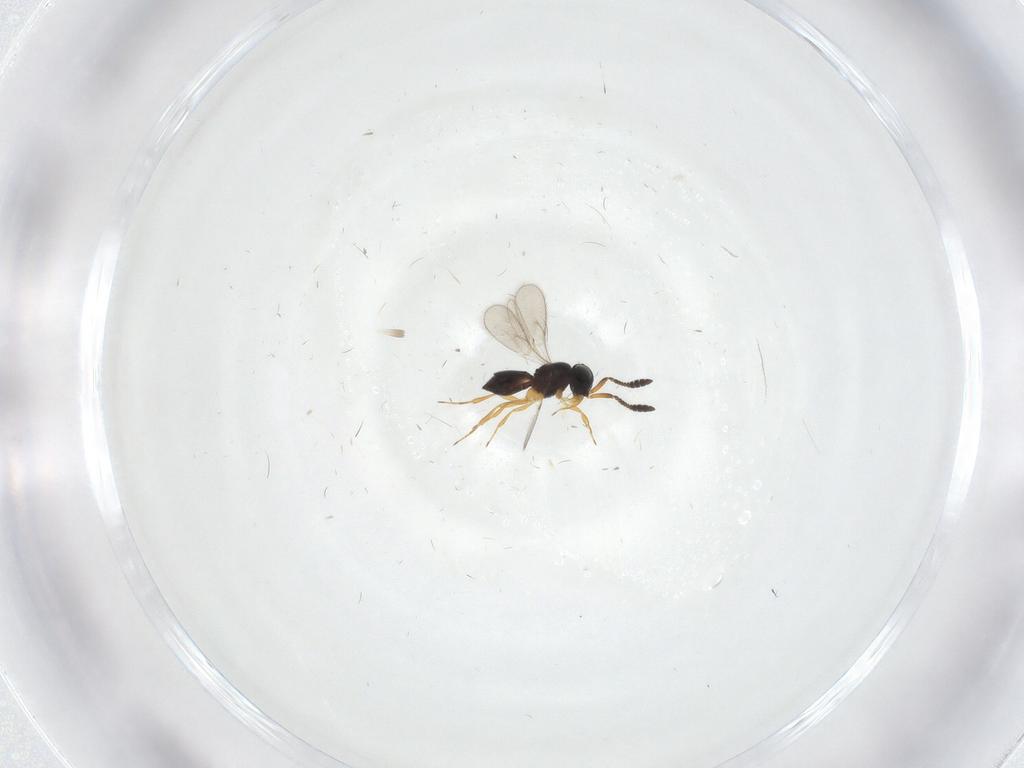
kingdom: Animalia
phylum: Arthropoda
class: Insecta
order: Hymenoptera
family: Scelionidae
